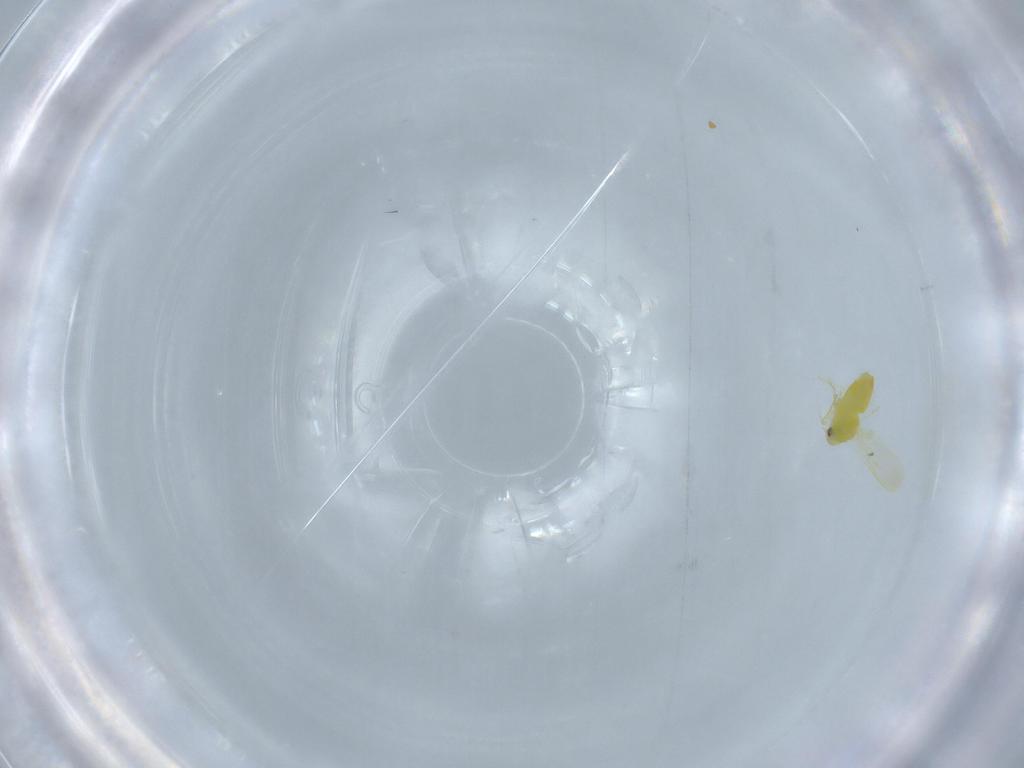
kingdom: Animalia
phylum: Arthropoda
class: Insecta
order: Hemiptera
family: Aleyrodidae
